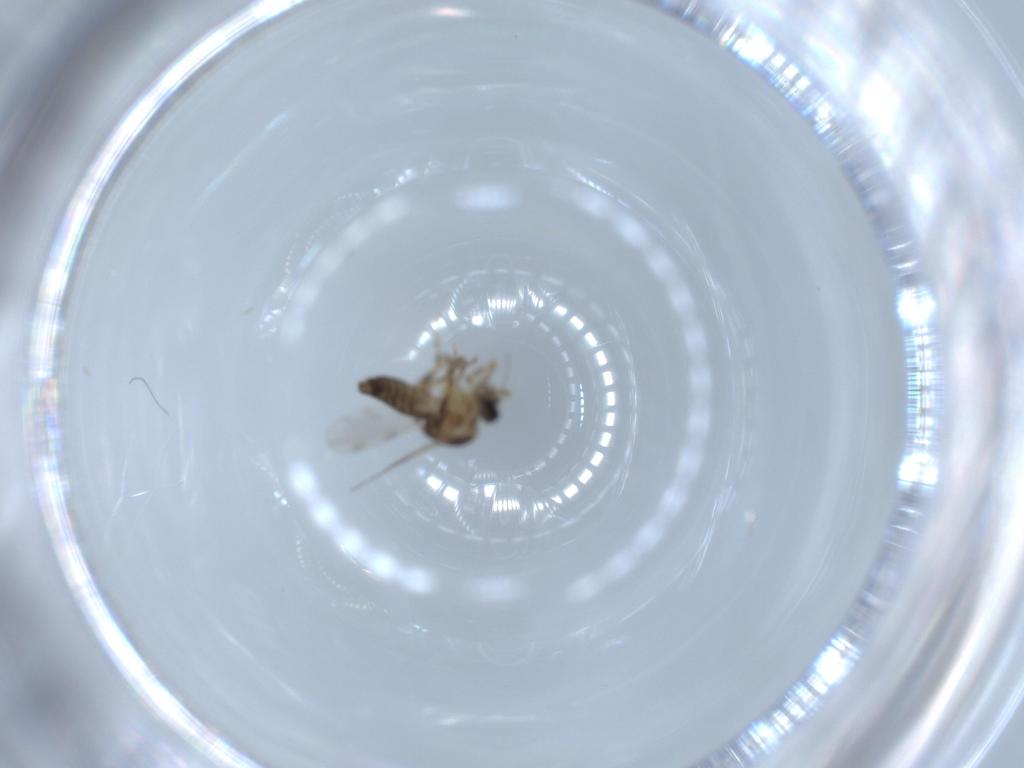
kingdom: Animalia
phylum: Arthropoda
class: Insecta
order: Diptera
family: Ceratopogonidae
